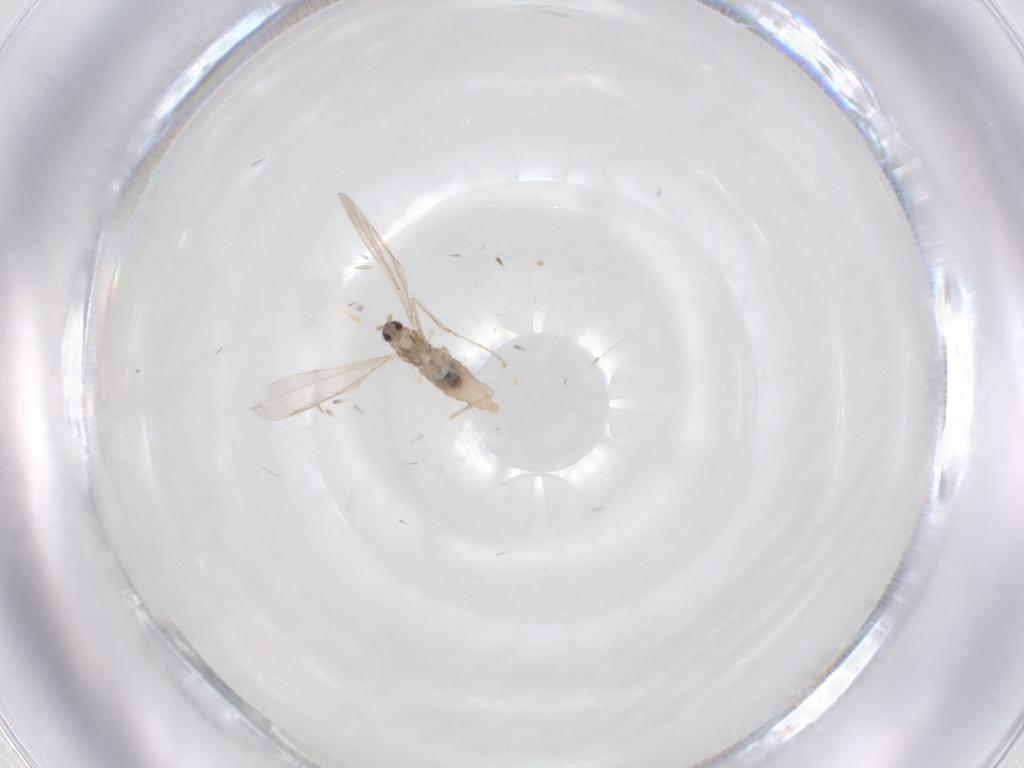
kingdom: Animalia
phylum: Arthropoda
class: Insecta
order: Diptera
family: Cecidomyiidae
